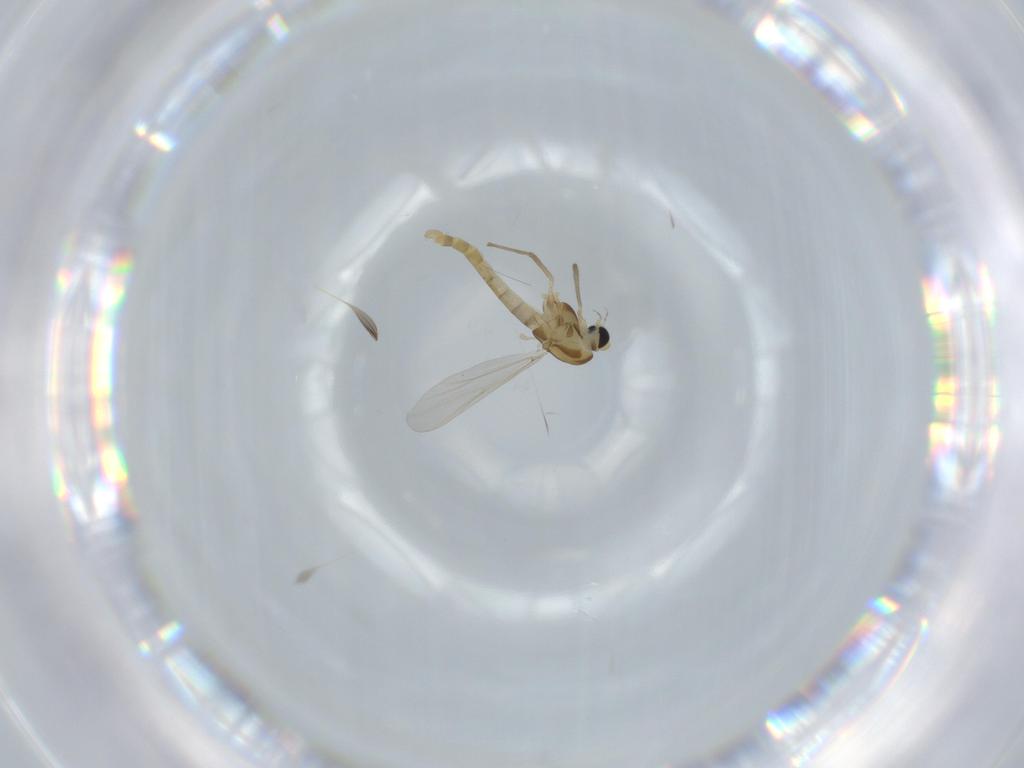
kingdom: Animalia
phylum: Arthropoda
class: Insecta
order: Diptera
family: Chironomidae
